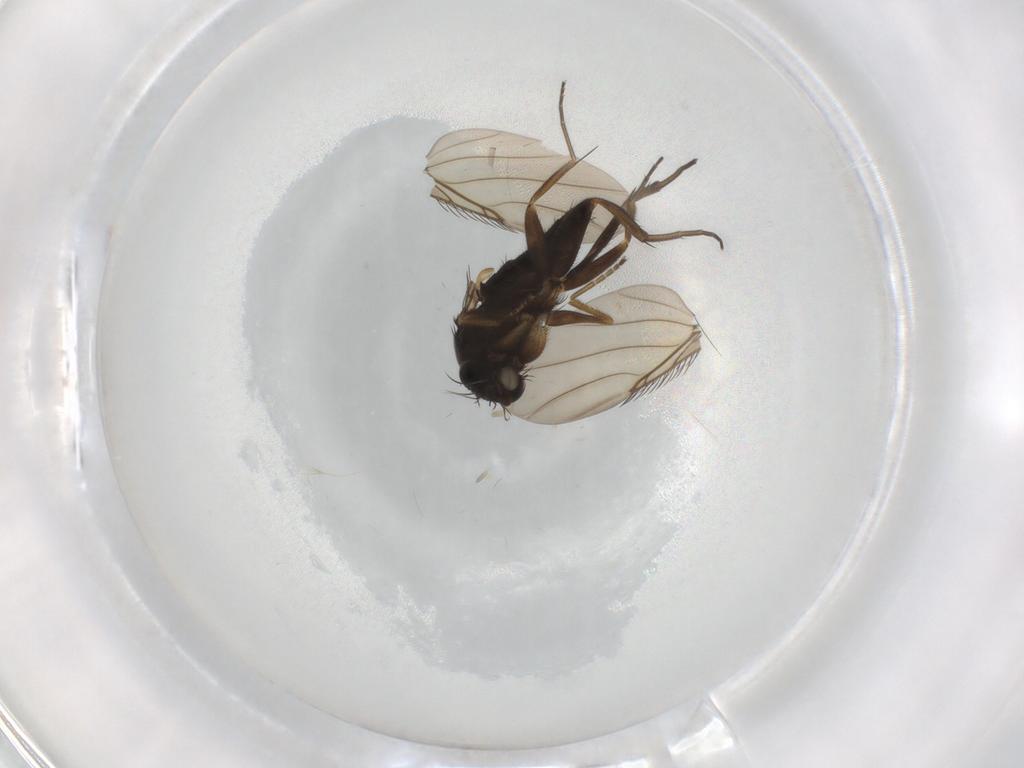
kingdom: Animalia
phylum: Arthropoda
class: Insecta
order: Diptera
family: Phoridae
